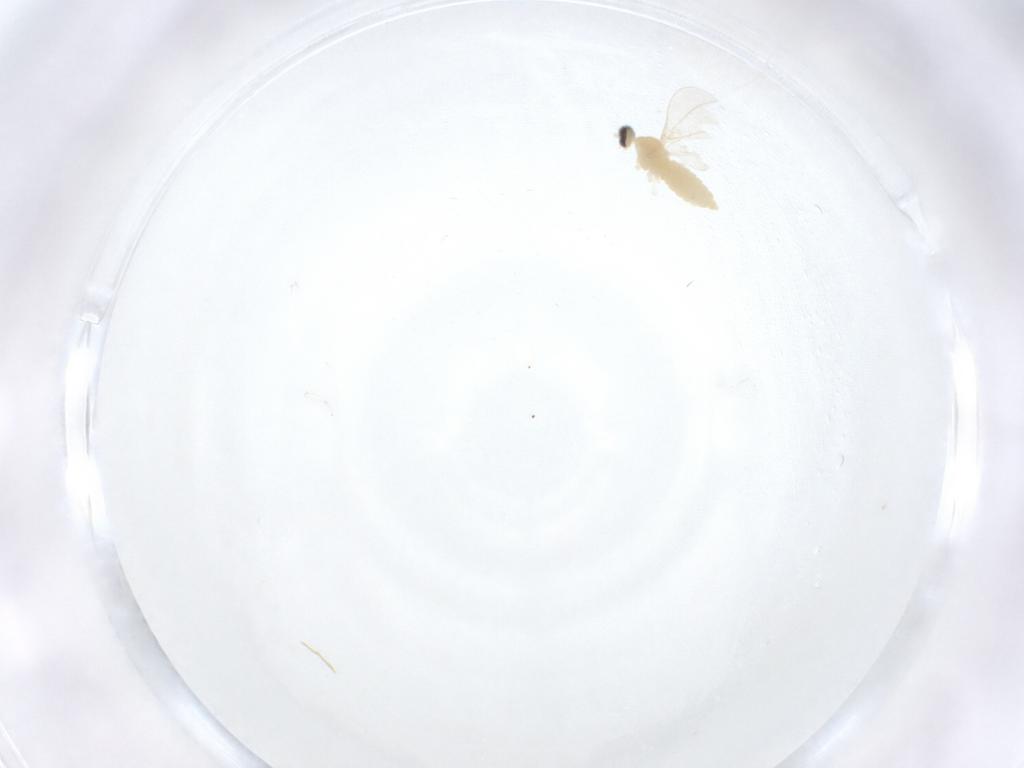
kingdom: Animalia
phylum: Arthropoda
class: Insecta
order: Diptera
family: Cecidomyiidae
